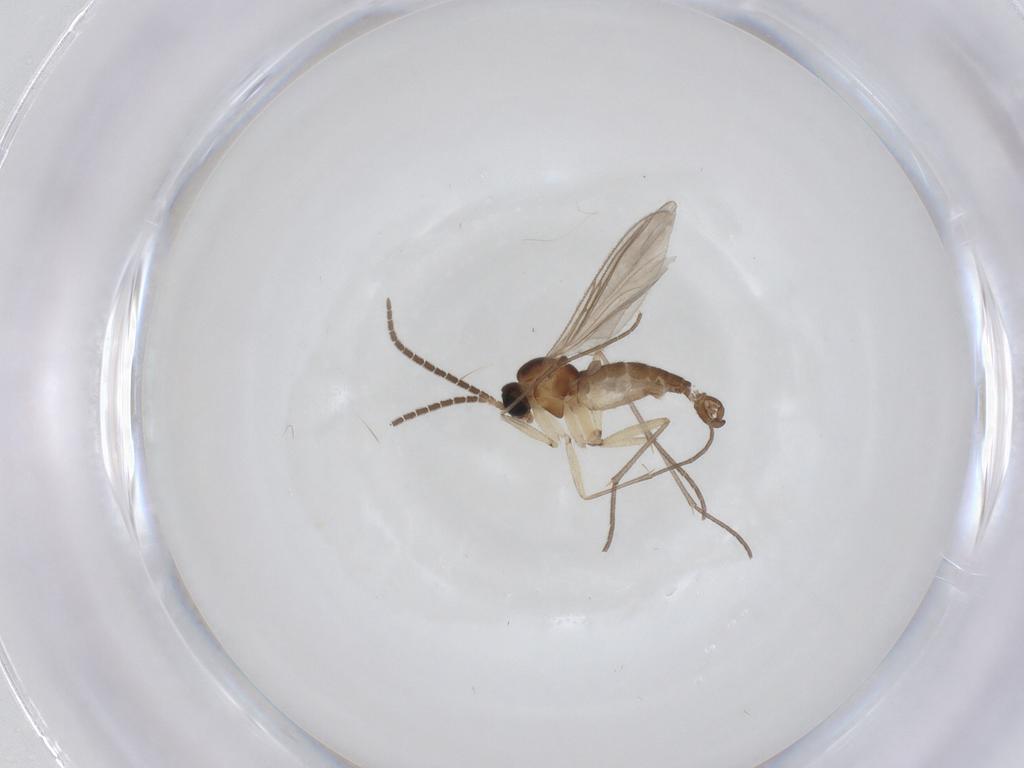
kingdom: Animalia
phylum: Arthropoda
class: Insecta
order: Diptera
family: Sciaridae
